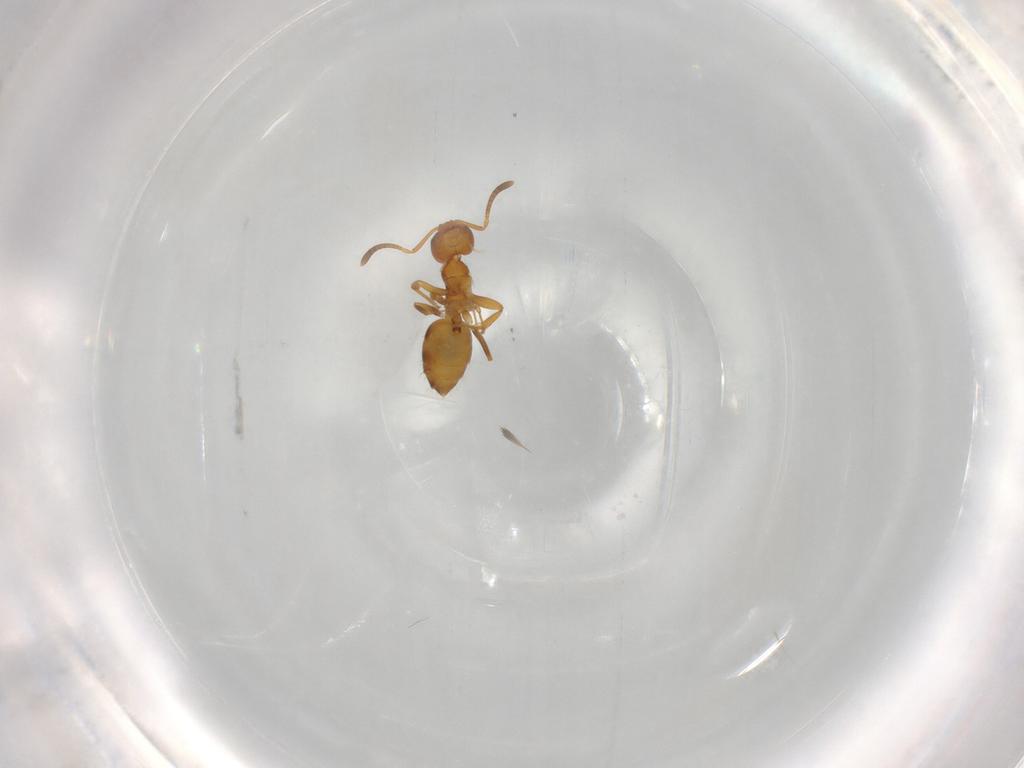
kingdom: Animalia
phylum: Arthropoda
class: Insecta
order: Hymenoptera
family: Formicidae
